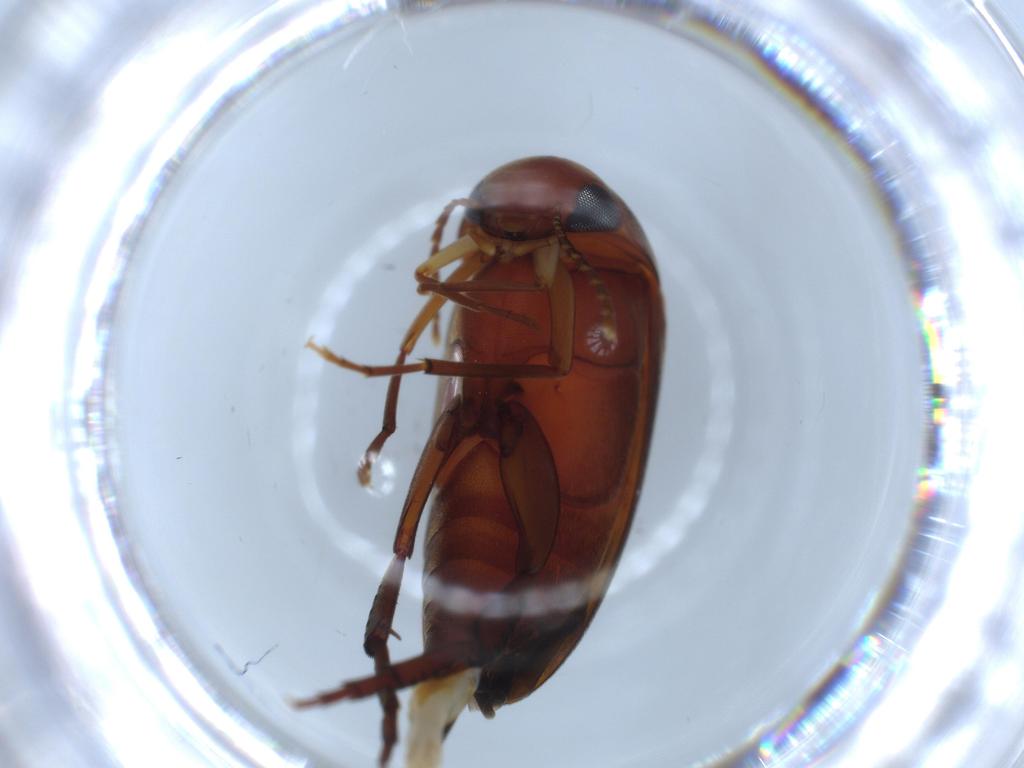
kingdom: Animalia
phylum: Arthropoda
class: Insecta
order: Coleoptera
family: Mordellidae
